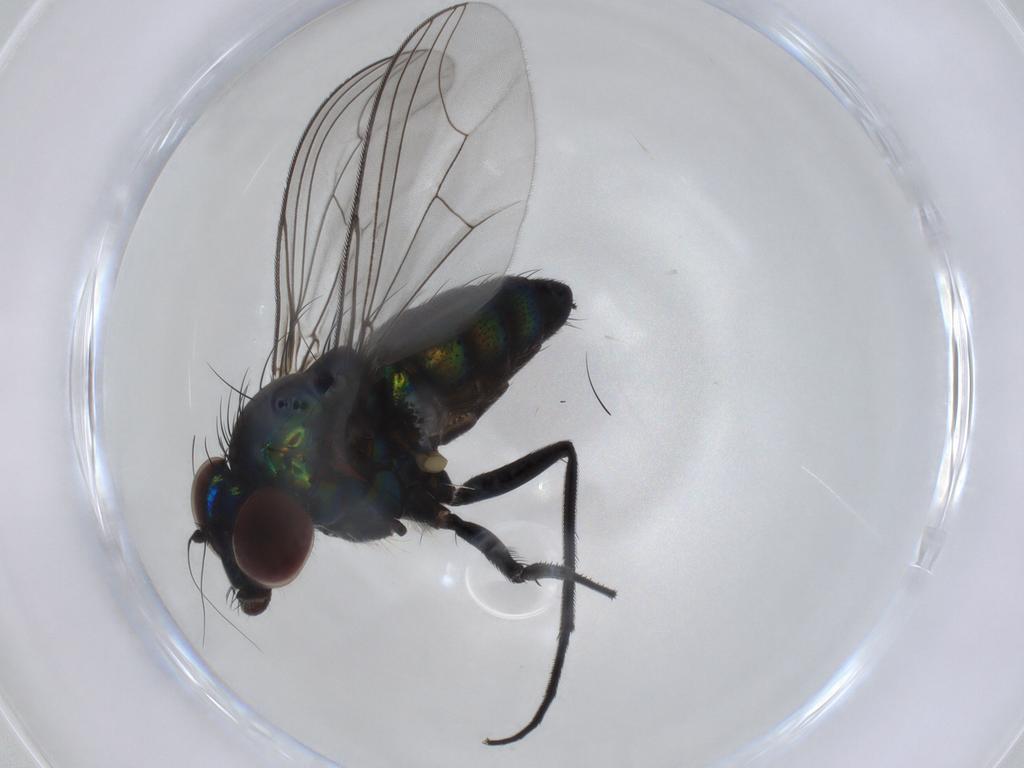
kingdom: Animalia
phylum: Arthropoda
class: Insecta
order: Diptera
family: Dolichopodidae
